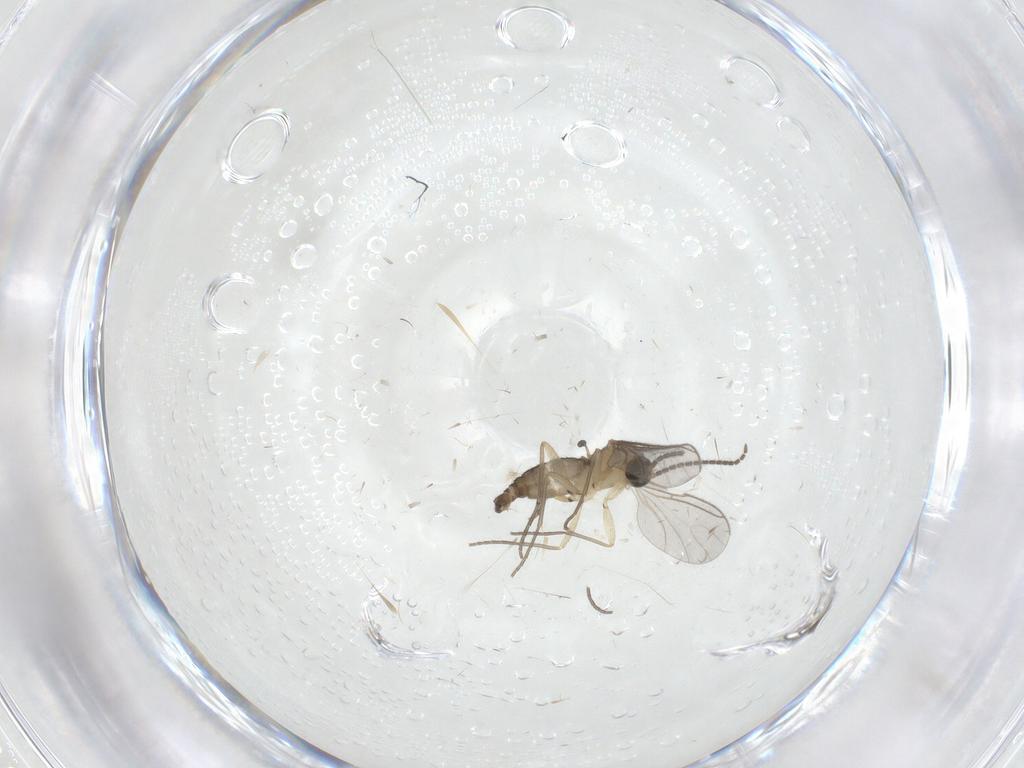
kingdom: Animalia
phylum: Arthropoda
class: Insecta
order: Diptera
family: Sciaridae
